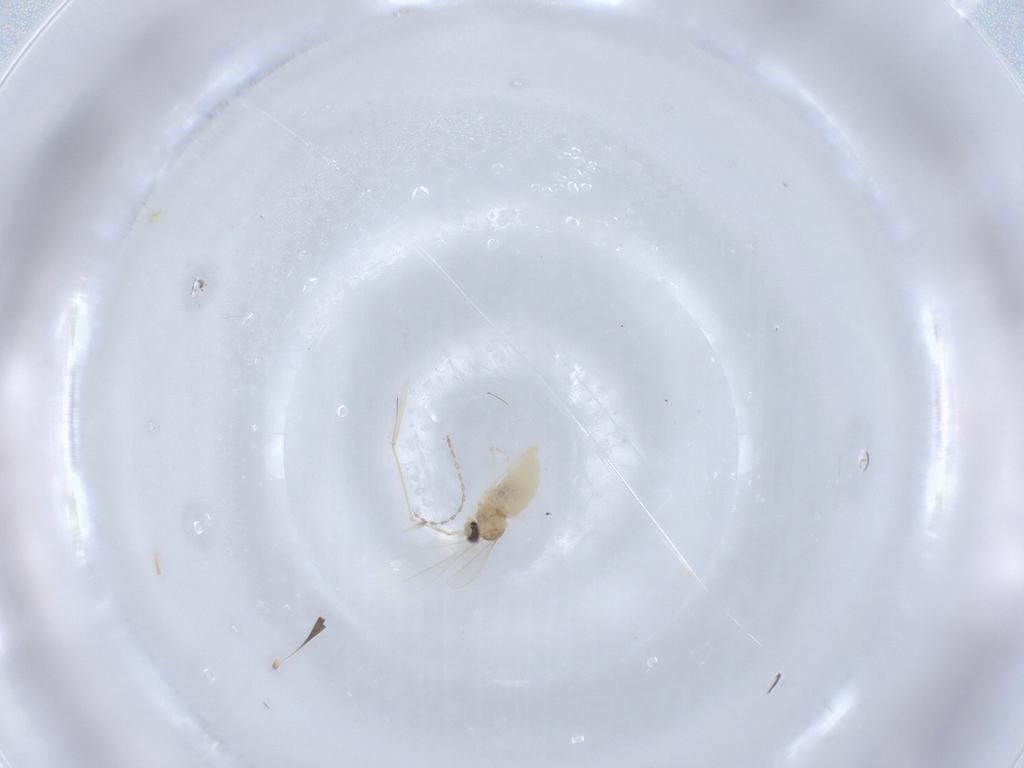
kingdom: Animalia
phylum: Arthropoda
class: Insecta
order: Diptera
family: Cecidomyiidae
